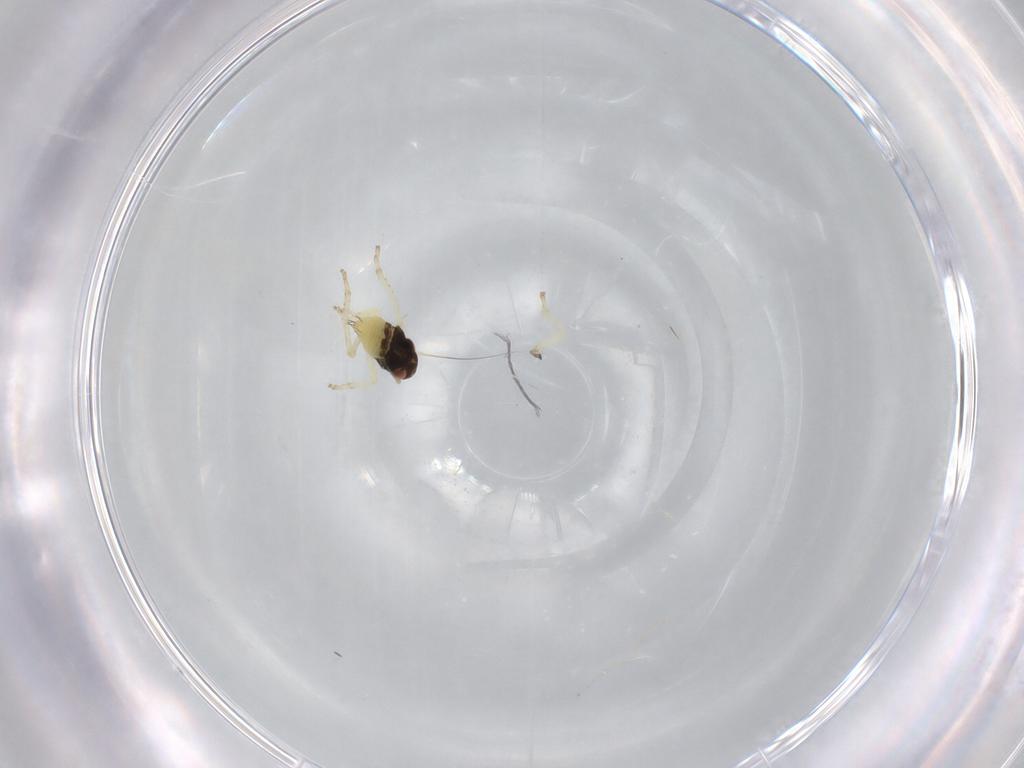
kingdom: Animalia
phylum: Arthropoda
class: Insecta
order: Hemiptera
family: Cicadellidae
